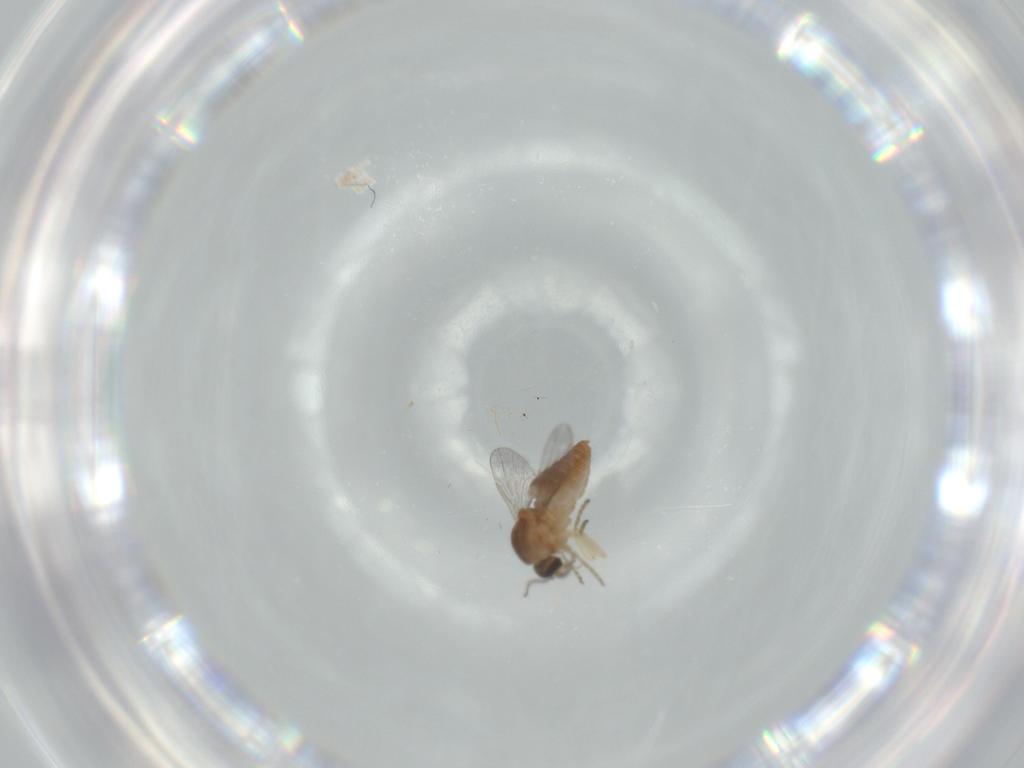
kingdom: Animalia
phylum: Arthropoda
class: Insecta
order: Diptera
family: Ceratopogonidae
